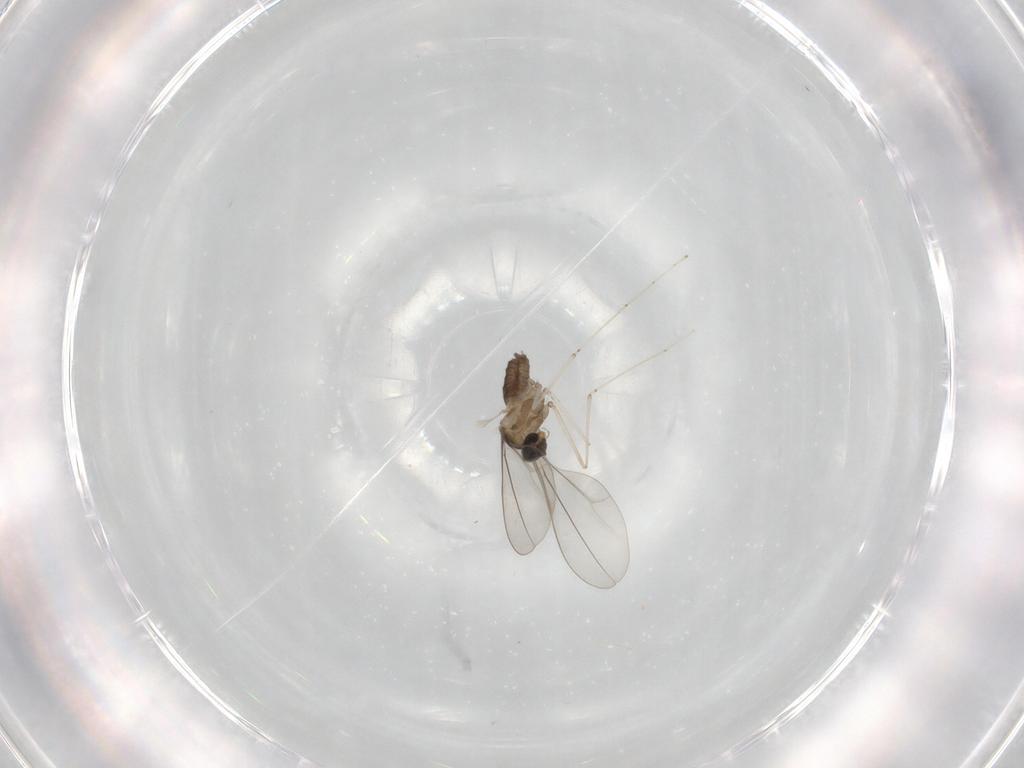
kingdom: Animalia
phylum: Arthropoda
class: Insecta
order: Diptera
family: Cecidomyiidae
